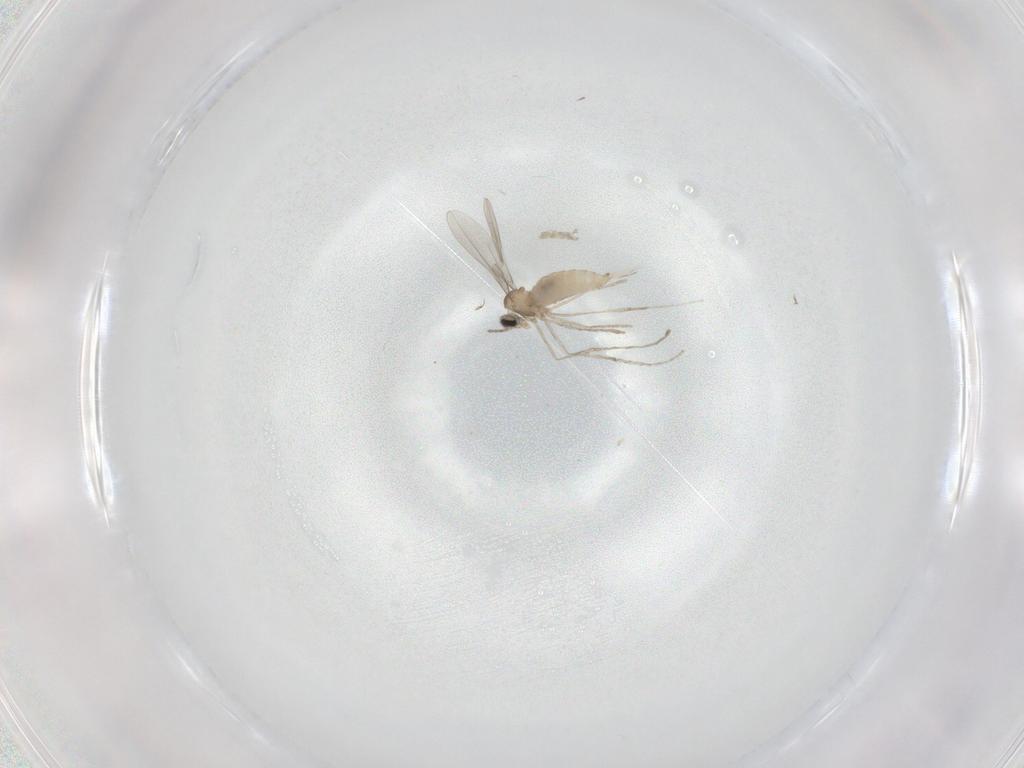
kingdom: Animalia
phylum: Arthropoda
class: Insecta
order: Diptera
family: Cecidomyiidae
